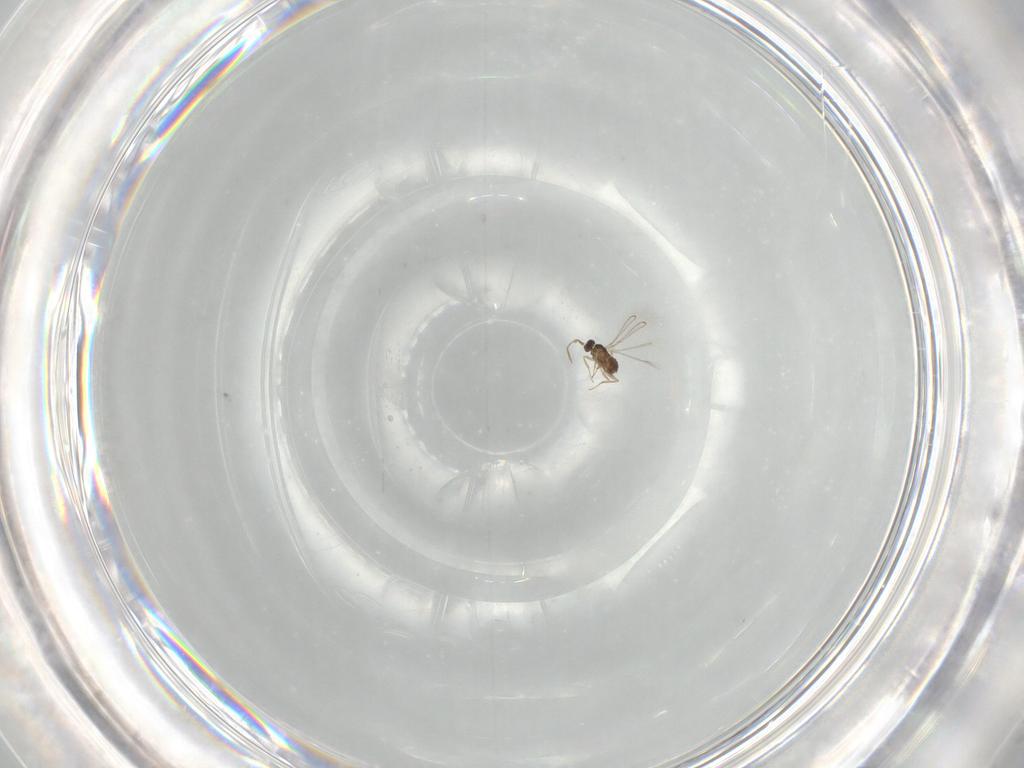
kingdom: Animalia
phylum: Arthropoda
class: Insecta
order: Hymenoptera
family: Mymaridae
